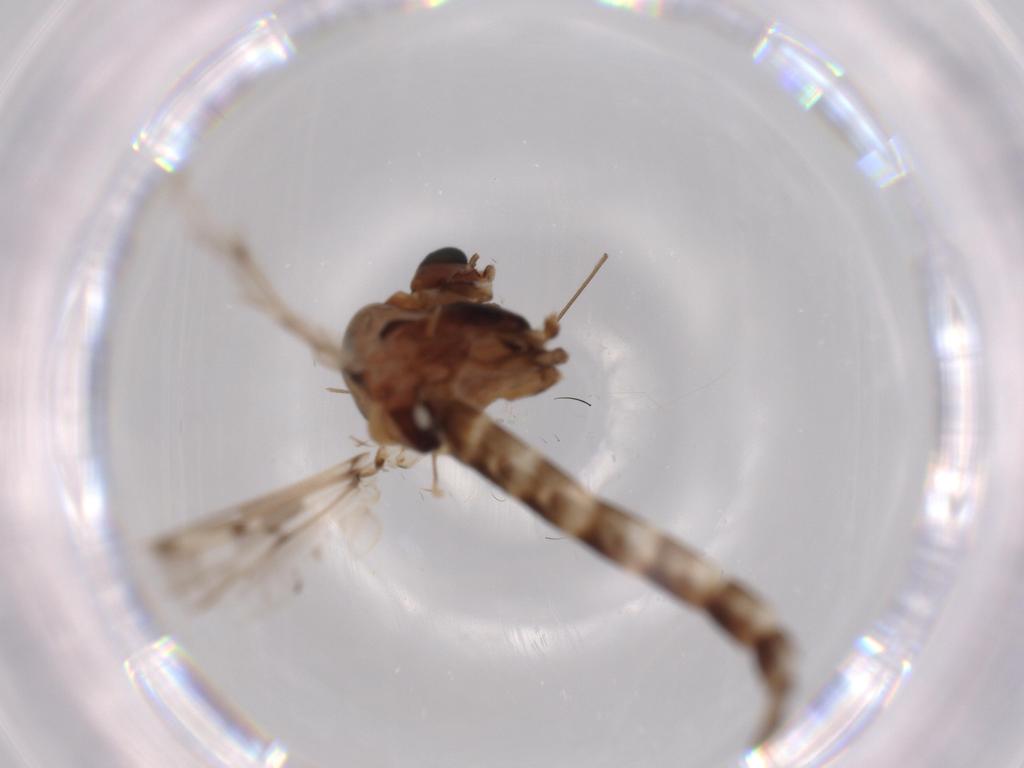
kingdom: Animalia
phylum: Arthropoda
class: Insecta
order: Diptera
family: Chironomidae
